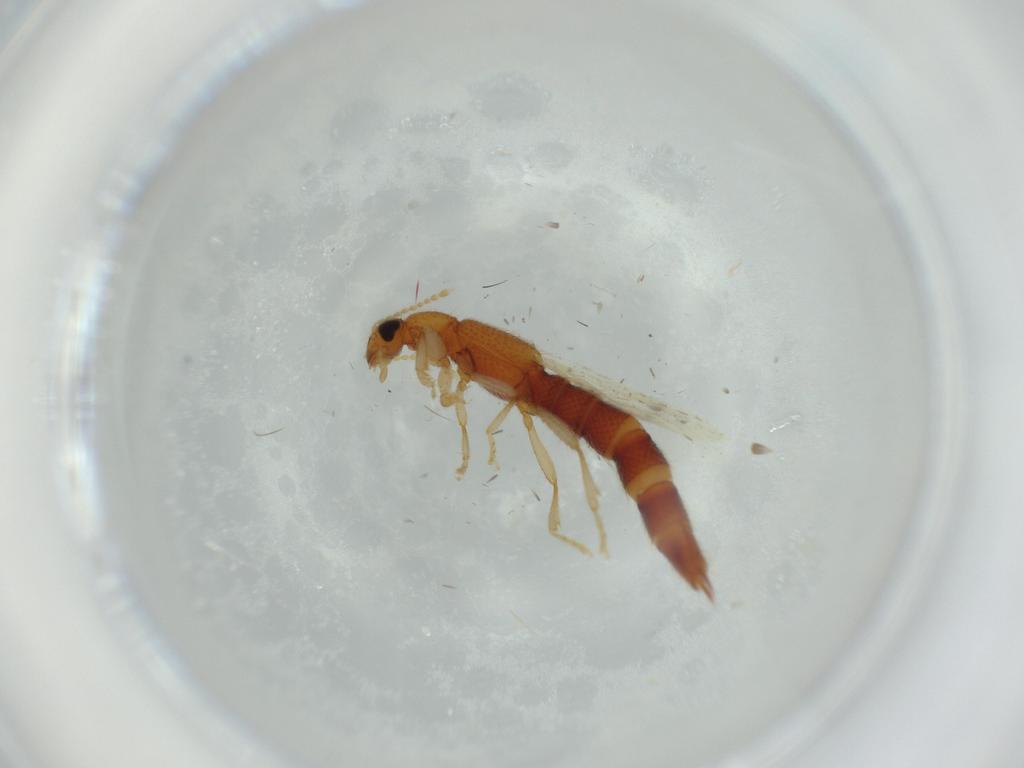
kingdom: Animalia
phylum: Arthropoda
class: Insecta
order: Coleoptera
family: Staphylinidae
